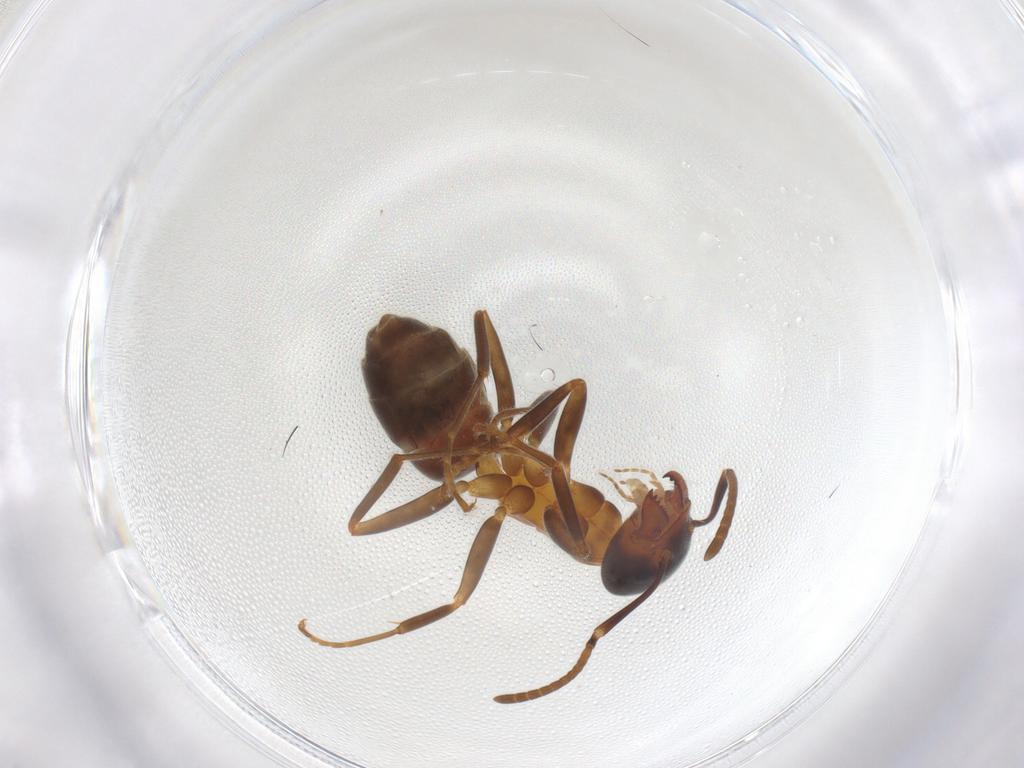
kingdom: Animalia
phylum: Arthropoda
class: Insecta
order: Hymenoptera
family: Formicidae
